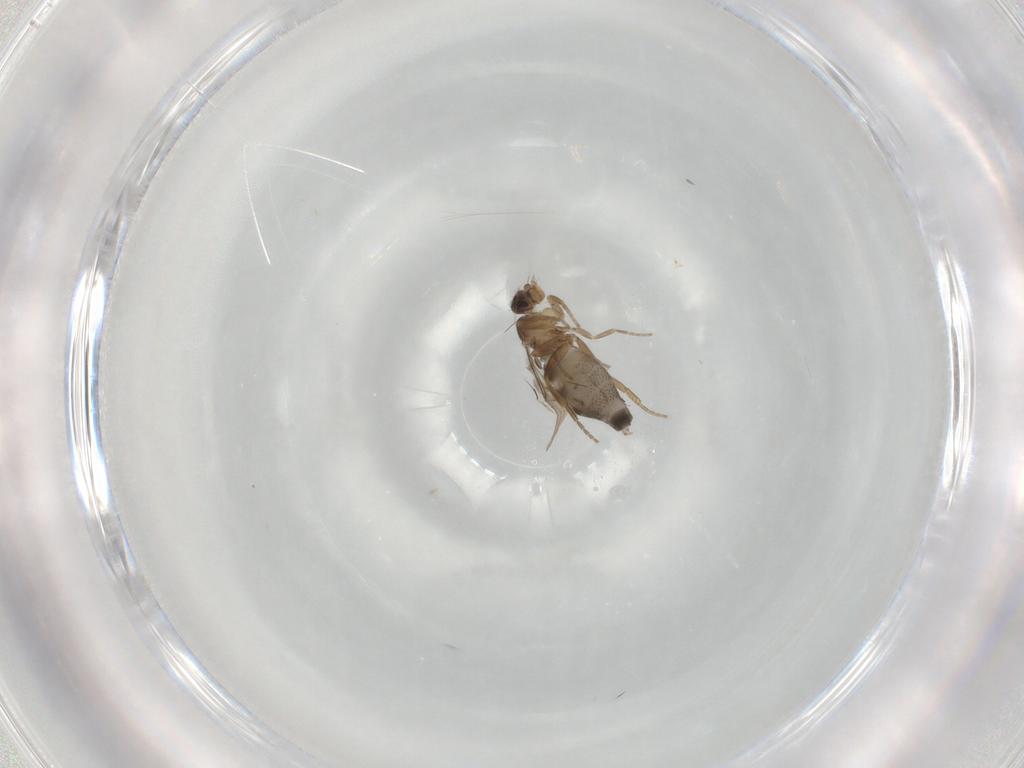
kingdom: Animalia
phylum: Arthropoda
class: Insecta
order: Diptera
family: Phoridae
